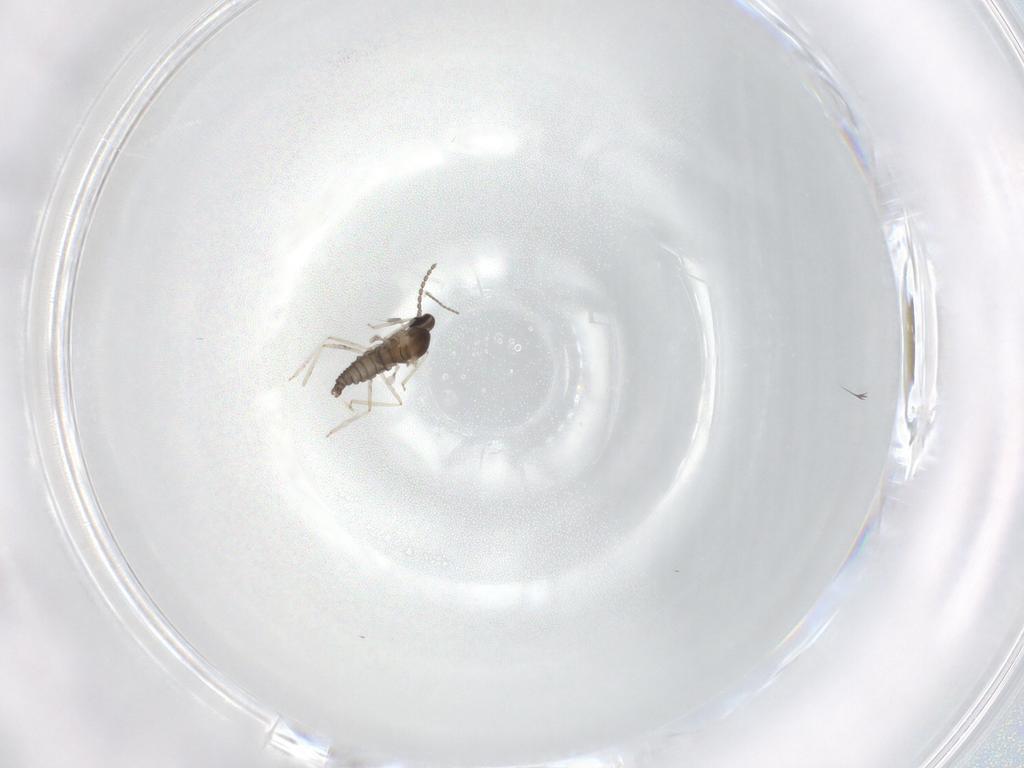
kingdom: Animalia
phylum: Arthropoda
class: Insecta
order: Diptera
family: Cecidomyiidae
